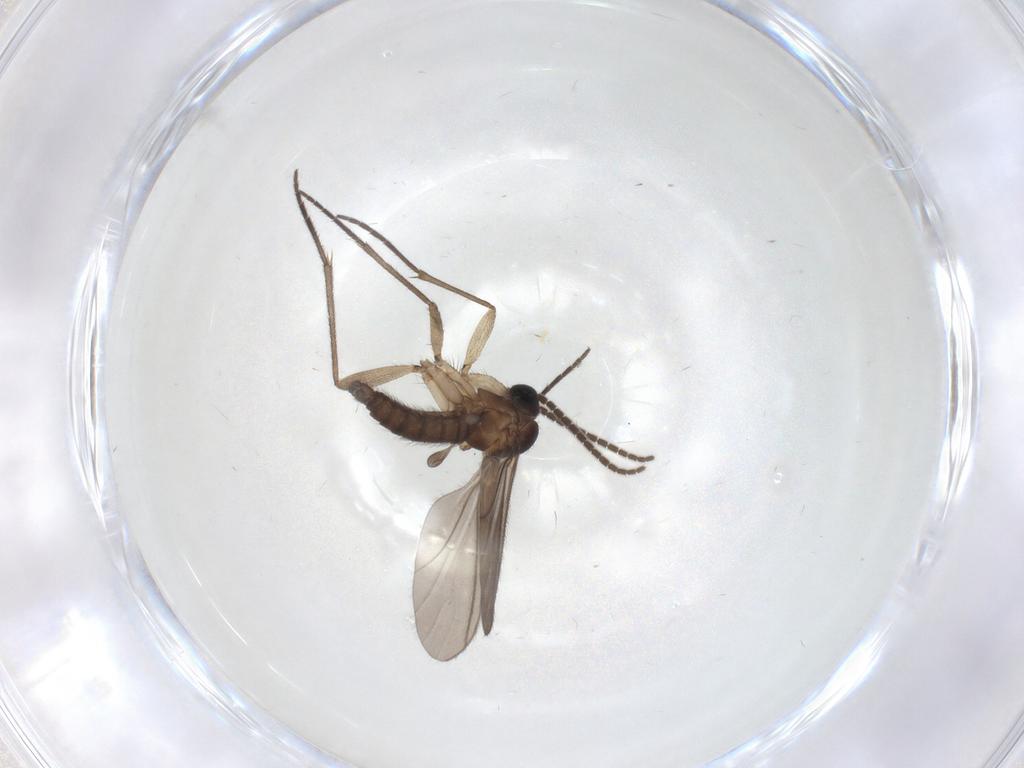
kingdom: Animalia
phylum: Arthropoda
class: Insecta
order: Diptera
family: Sciaridae
